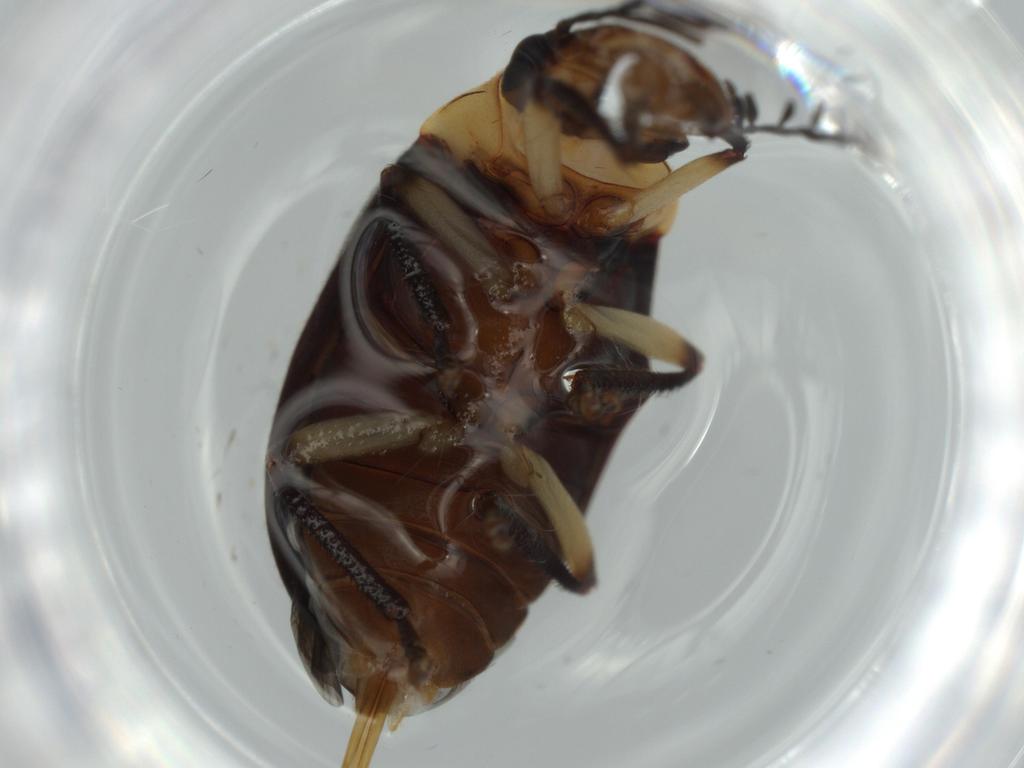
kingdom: Animalia
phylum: Arthropoda
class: Insecta
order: Coleoptera
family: Ptilodactylidae
